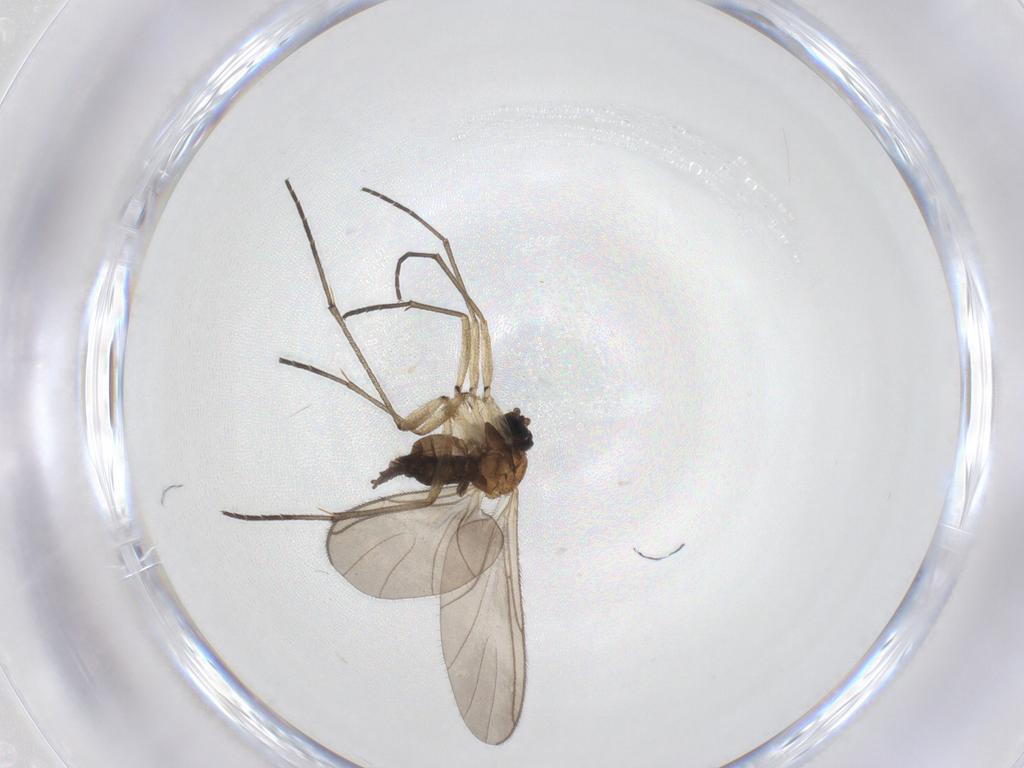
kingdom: Animalia
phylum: Arthropoda
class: Insecta
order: Diptera
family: Sciaridae
